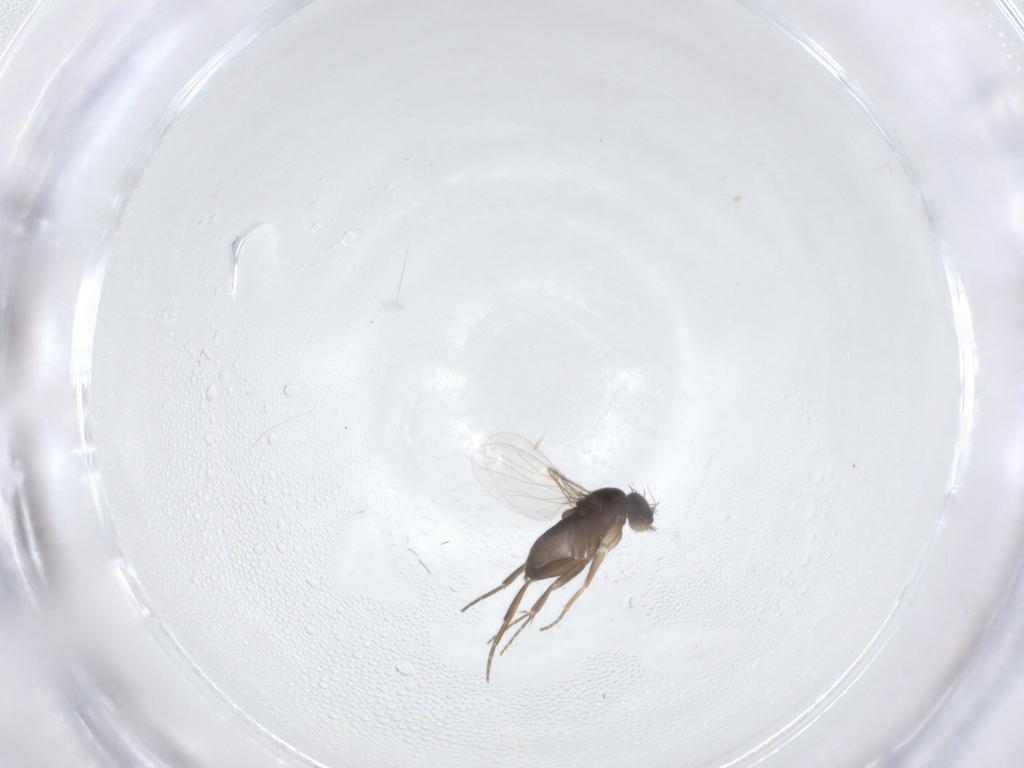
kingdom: Animalia
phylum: Arthropoda
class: Insecta
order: Diptera
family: Phoridae
